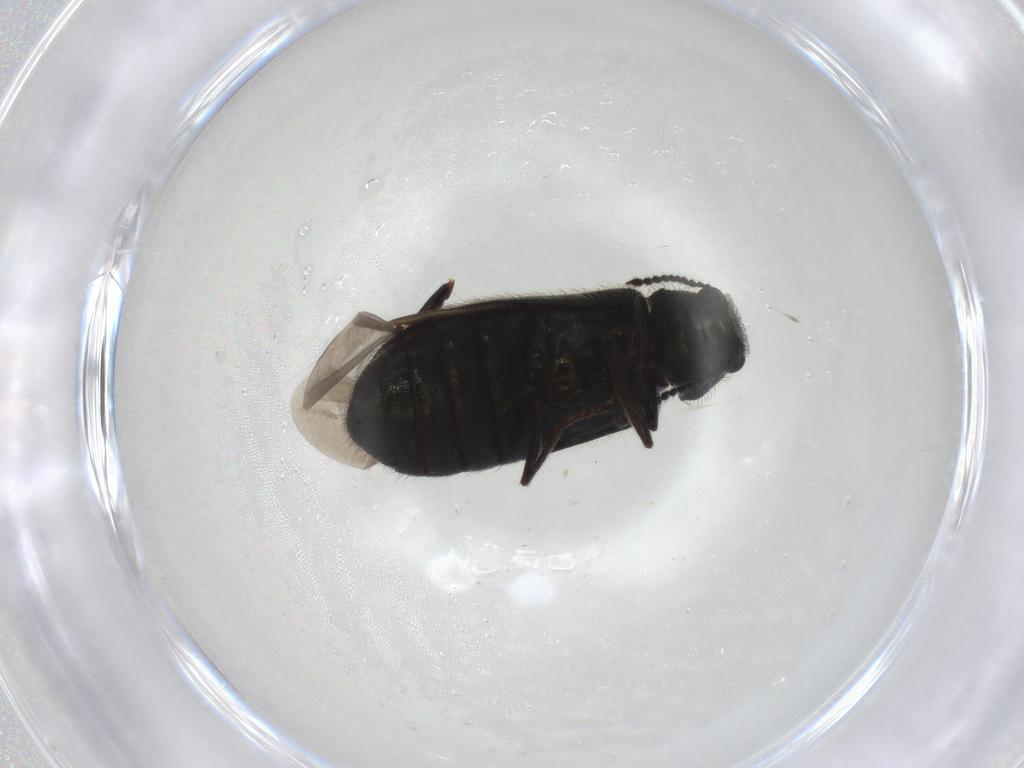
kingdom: Animalia
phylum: Arthropoda
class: Insecta
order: Coleoptera
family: Melyridae
